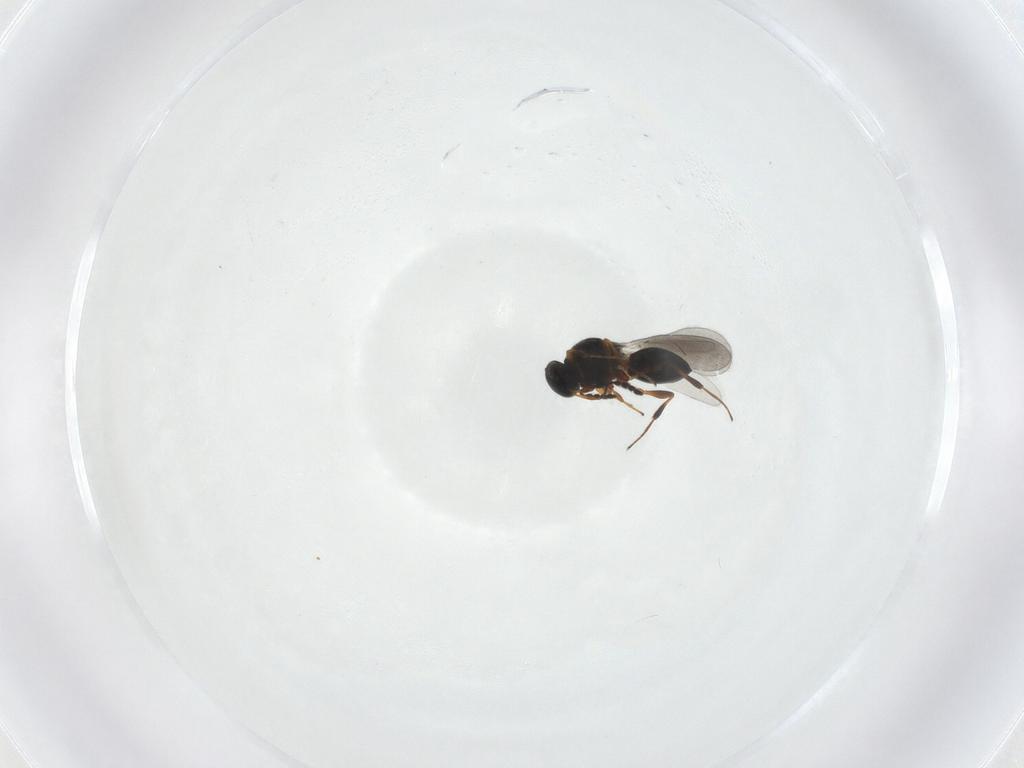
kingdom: Animalia
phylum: Arthropoda
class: Insecta
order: Hymenoptera
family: Platygastridae
